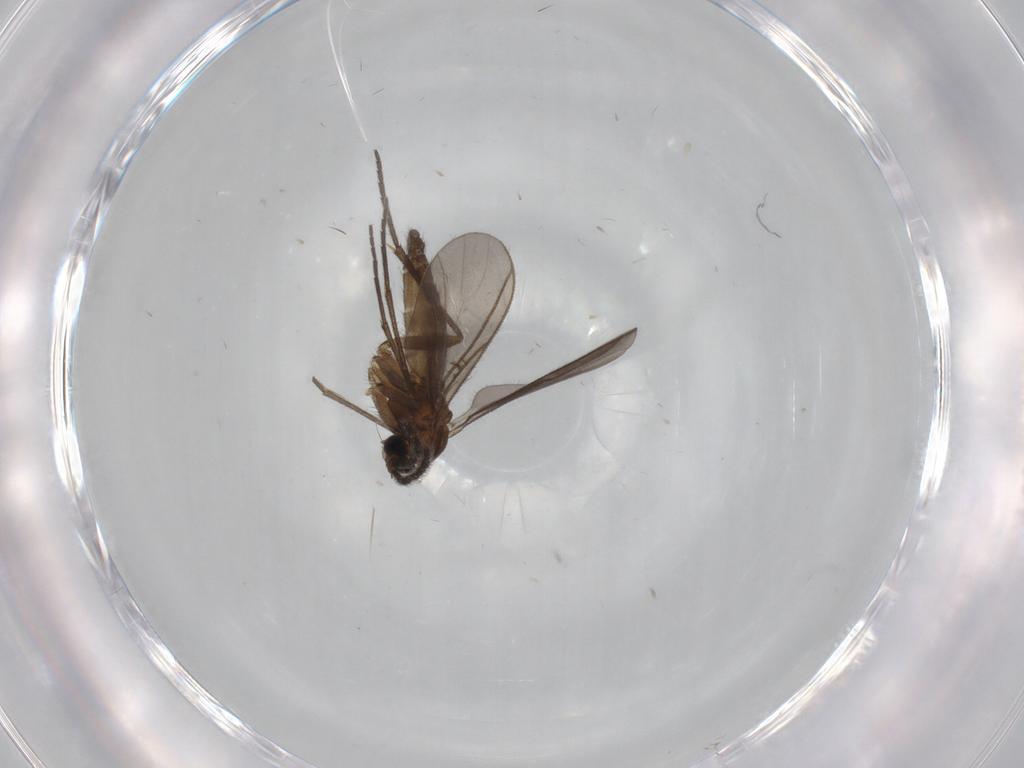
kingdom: Animalia
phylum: Arthropoda
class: Insecta
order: Diptera
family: Sciaridae
